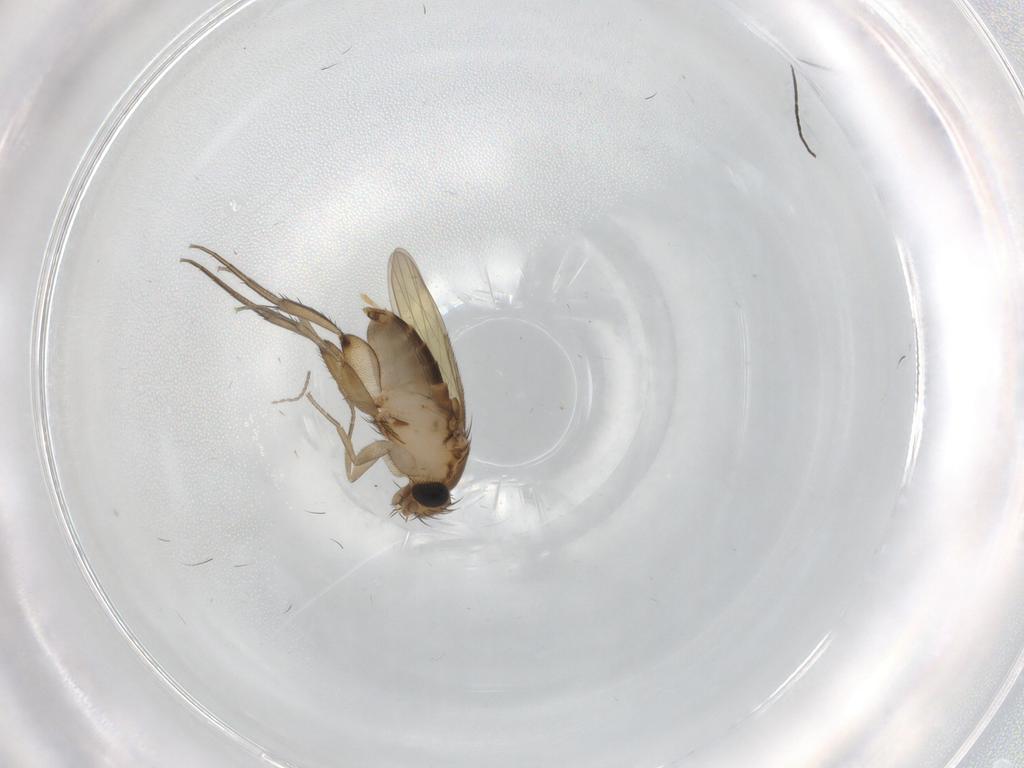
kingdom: Animalia
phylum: Arthropoda
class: Insecta
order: Diptera
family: Phoridae
